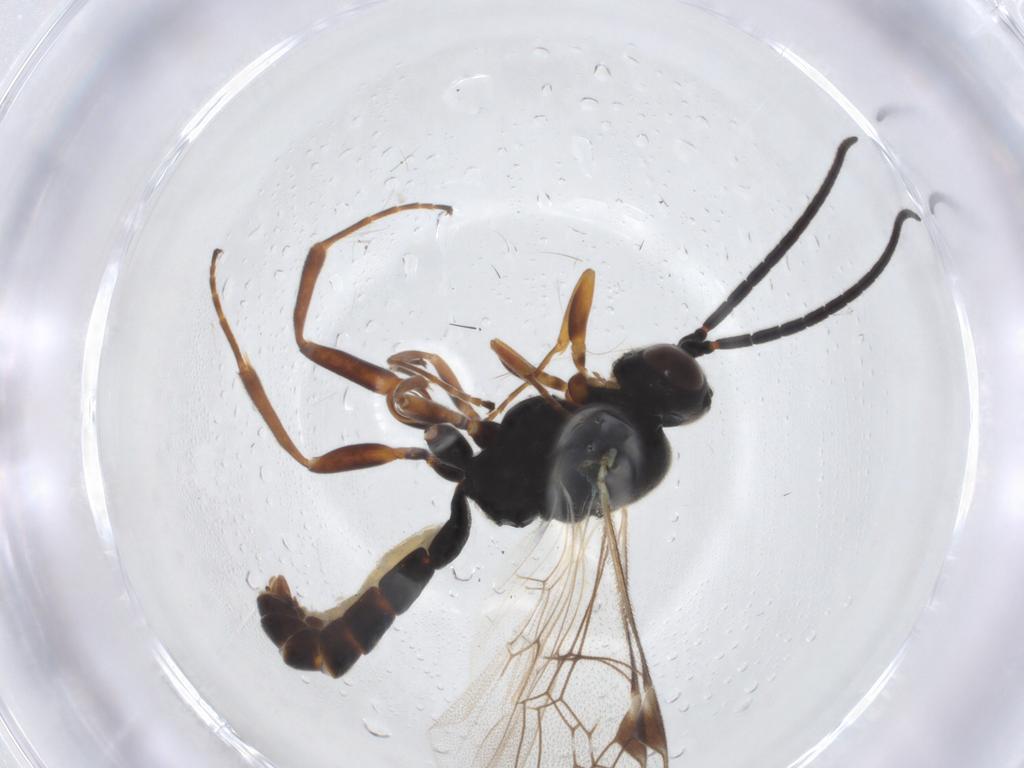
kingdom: Animalia
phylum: Arthropoda
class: Insecta
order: Hymenoptera
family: Ichneumonidae
